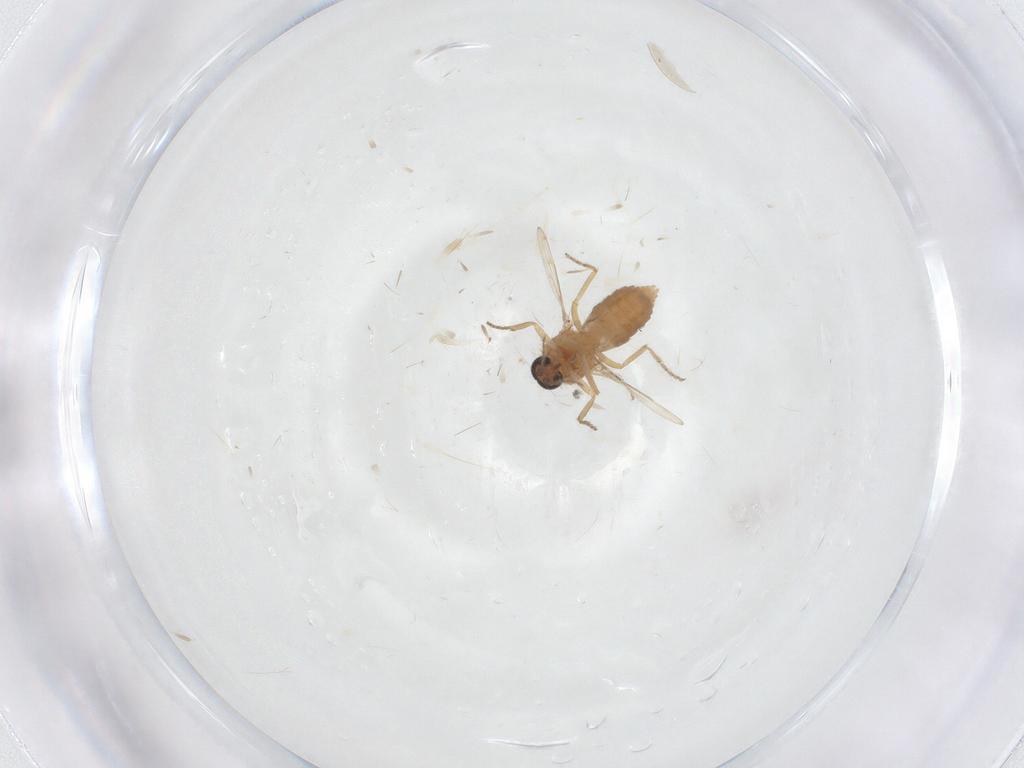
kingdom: Animalia
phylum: Arthropoda
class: Insecta
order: Diptera
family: Ceratopogonidae
